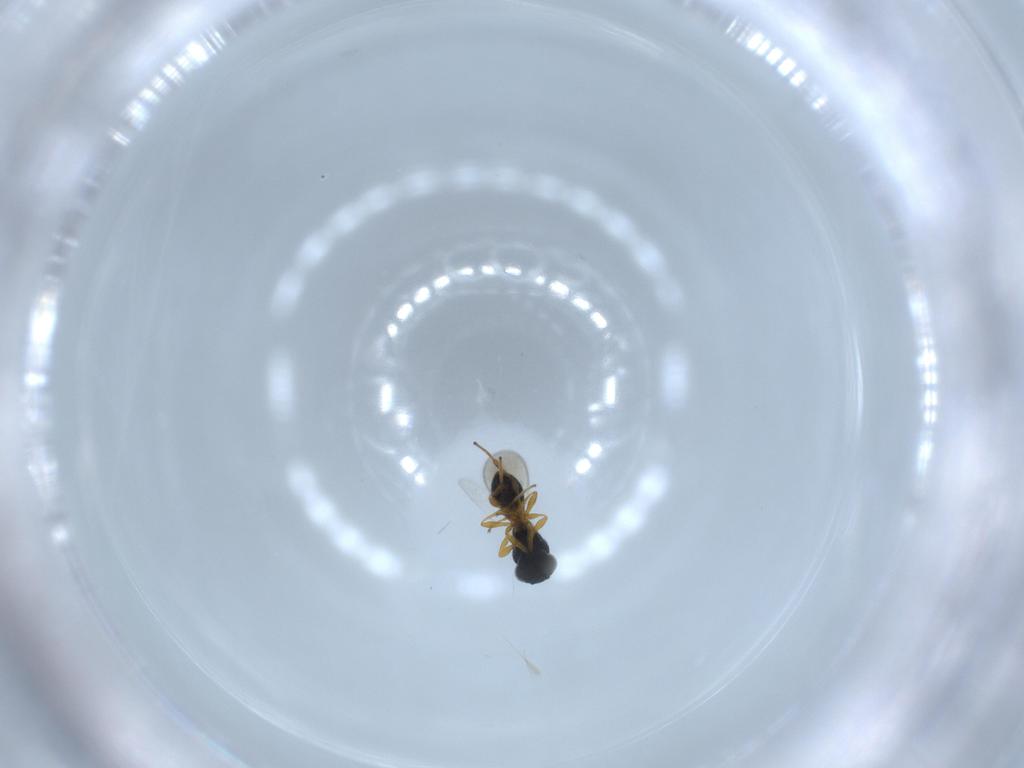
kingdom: Animalia
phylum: Arthropoda
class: Insecta
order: Hymenoptera
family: Platygastridae
